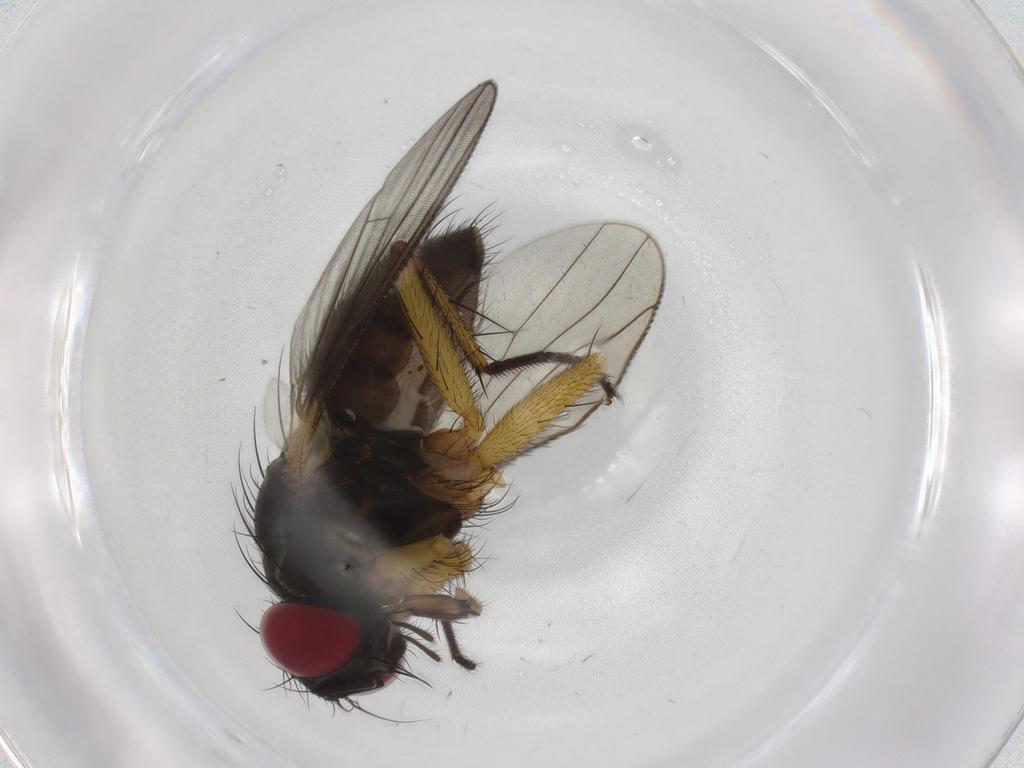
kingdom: Animalia
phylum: Arthropoda
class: Insecta
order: Diptera
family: Muscidae
